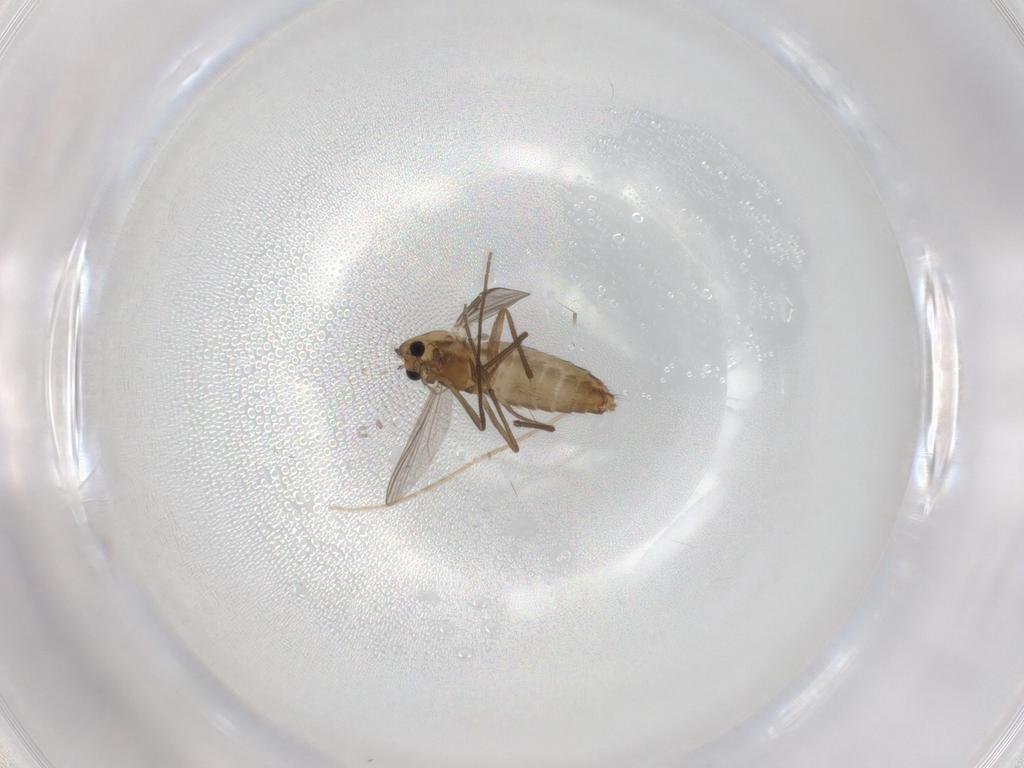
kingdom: Animalia
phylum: Arthropoda
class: Insecta
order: Diptera
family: Chironomidae
